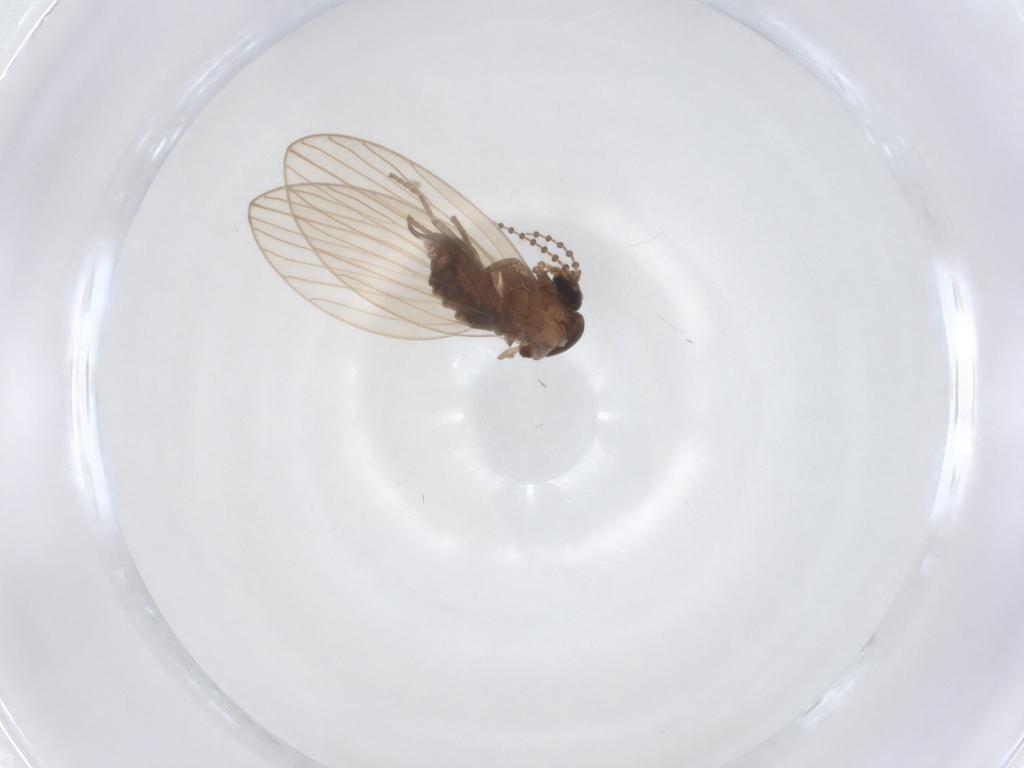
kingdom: Animalia
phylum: Arthropoda
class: Insecta
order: Diptera
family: Psychodidae
